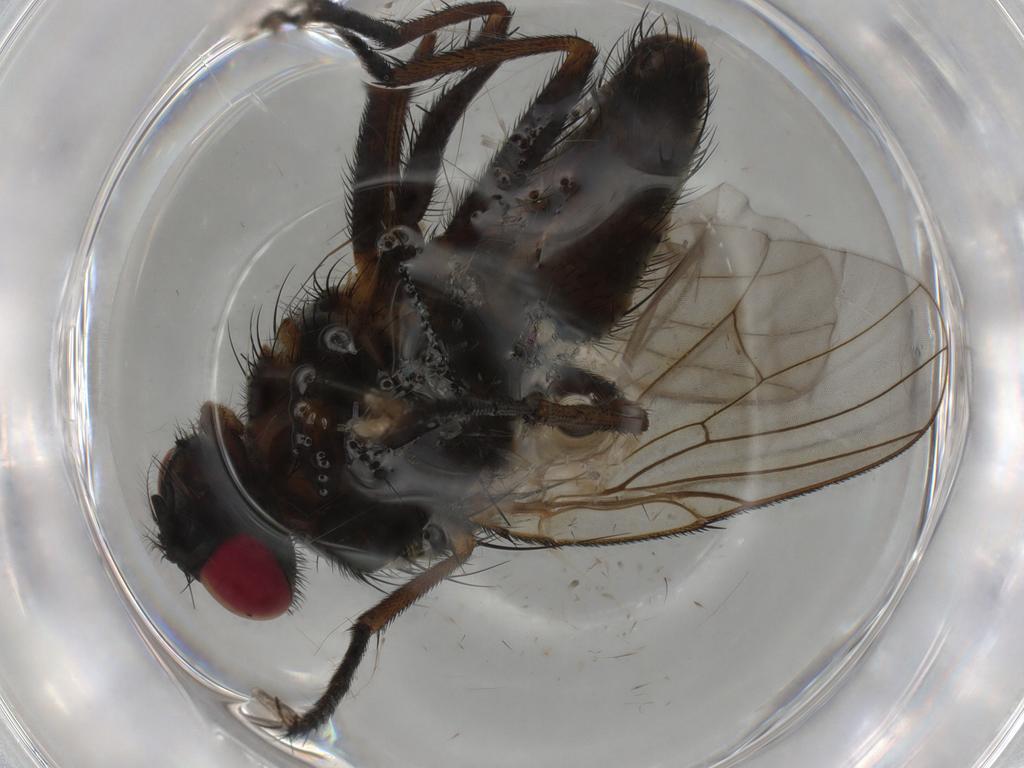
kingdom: Animalia
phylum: Arthropoda
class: Insecta
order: Diptera
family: Muscidae
